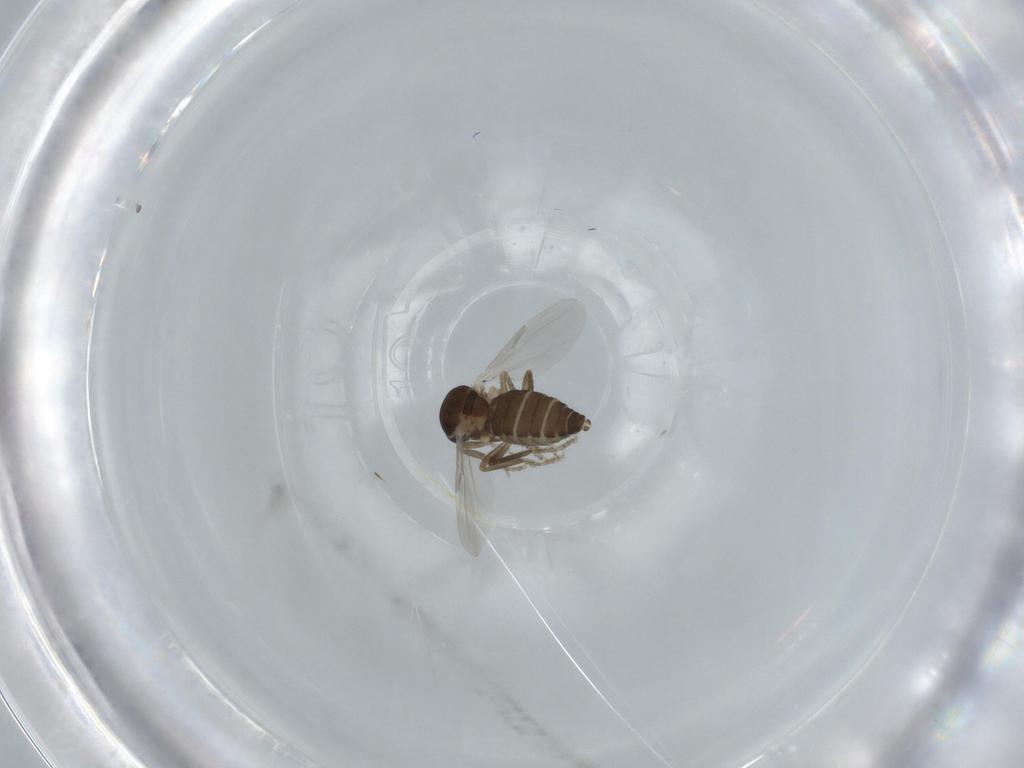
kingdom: Animalia
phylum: Arthropoda
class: Insecta
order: Diptera
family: Ceratopogonidae
